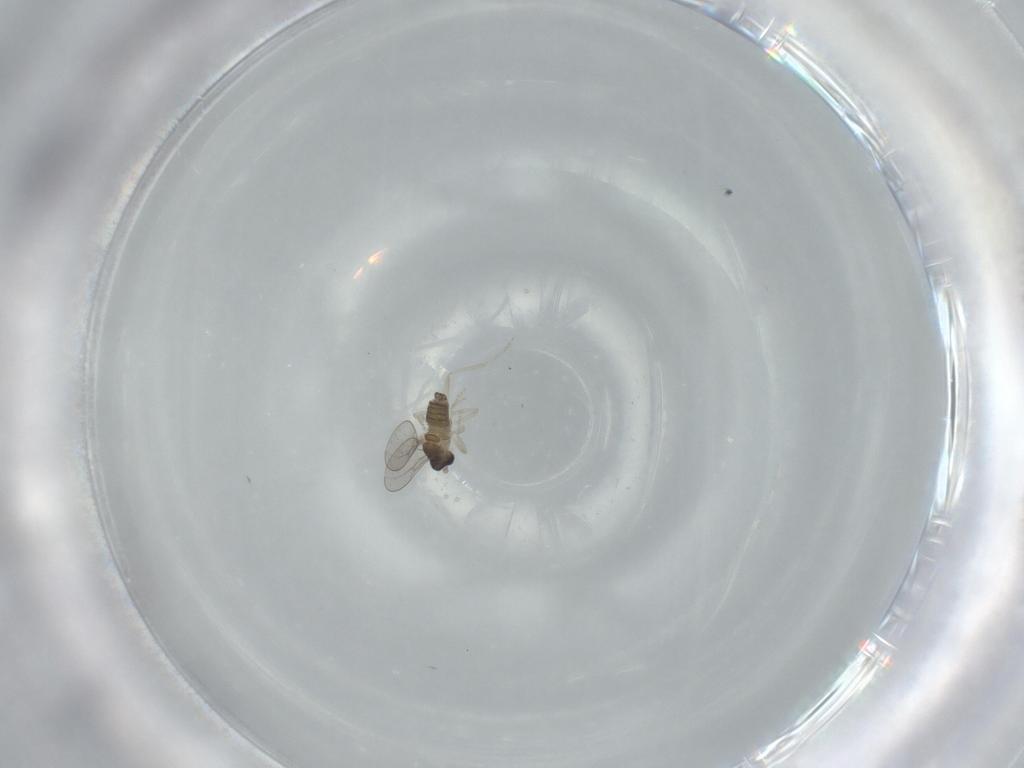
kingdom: Animalia
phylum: Arthropoda
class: Insecta
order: Diptera
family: Cecidomyiidae
